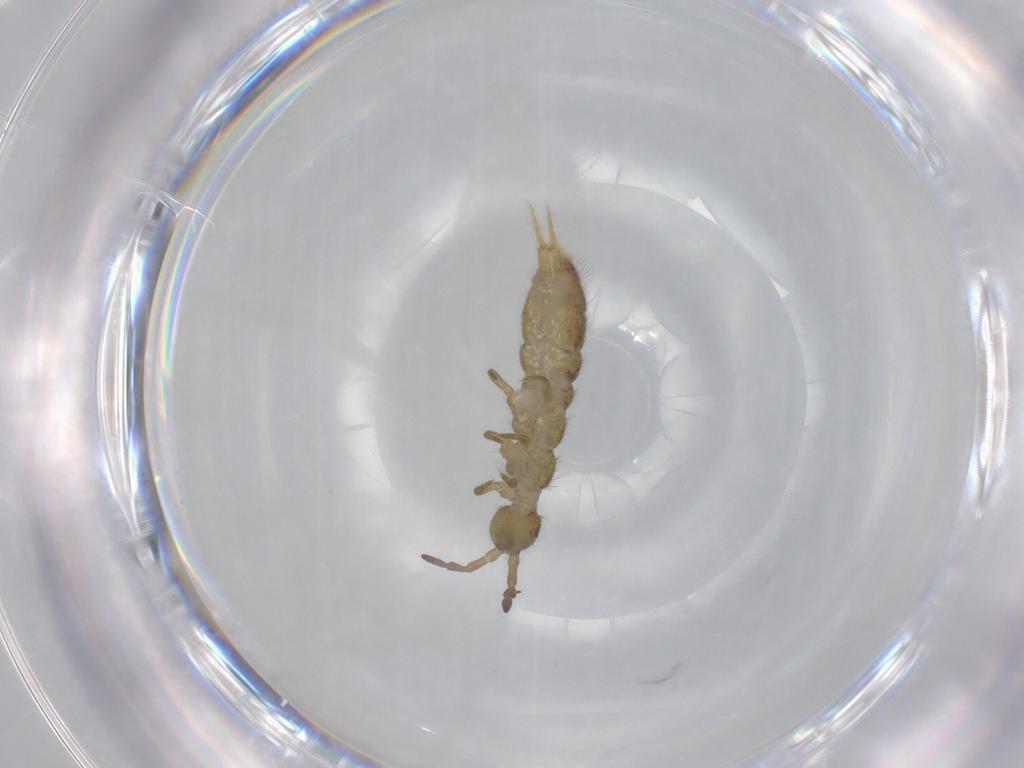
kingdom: Animalia
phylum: Arthropoda
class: Collembola
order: Entomobryomorpha
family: Isotomidae
